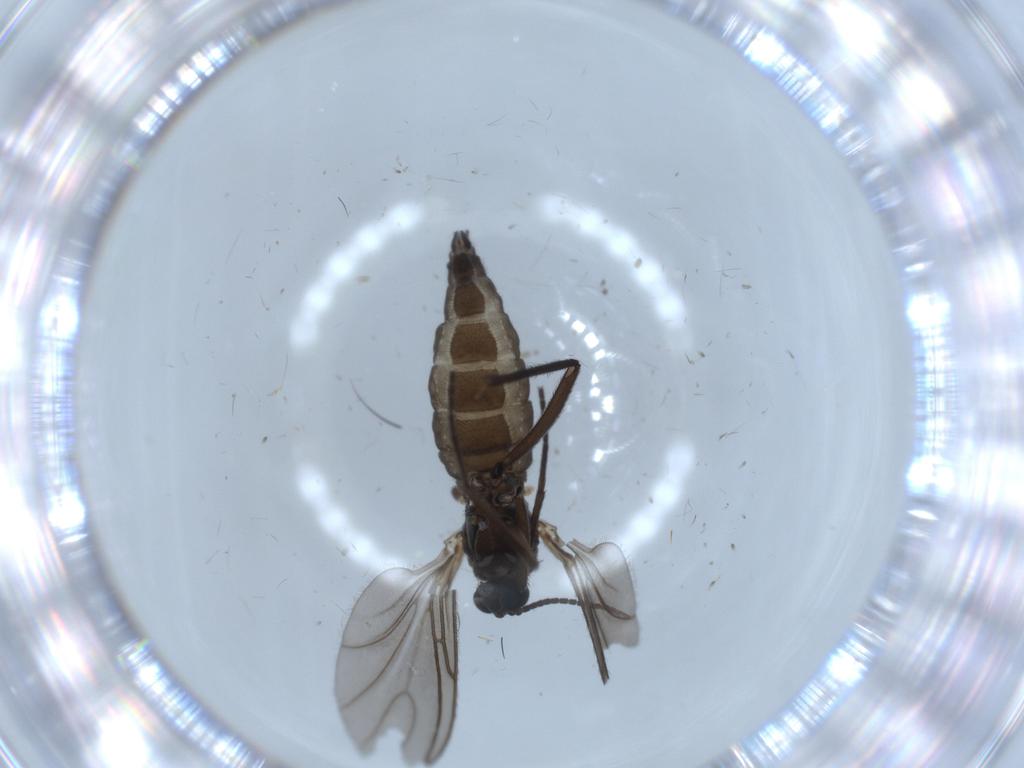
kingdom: Animalia
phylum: Arthropoda
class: Insecta
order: Diptera
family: Sciaridae
